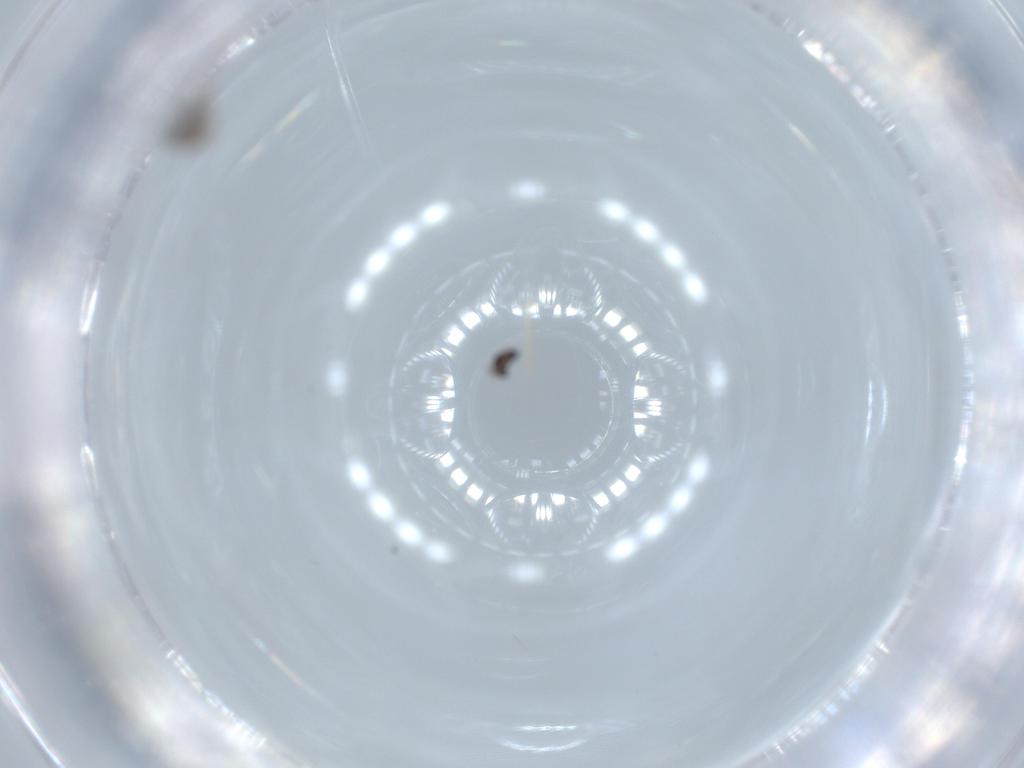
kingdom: Animalia
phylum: Arthropoda
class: Insecta
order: Diptera
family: Cecidomyiidae
